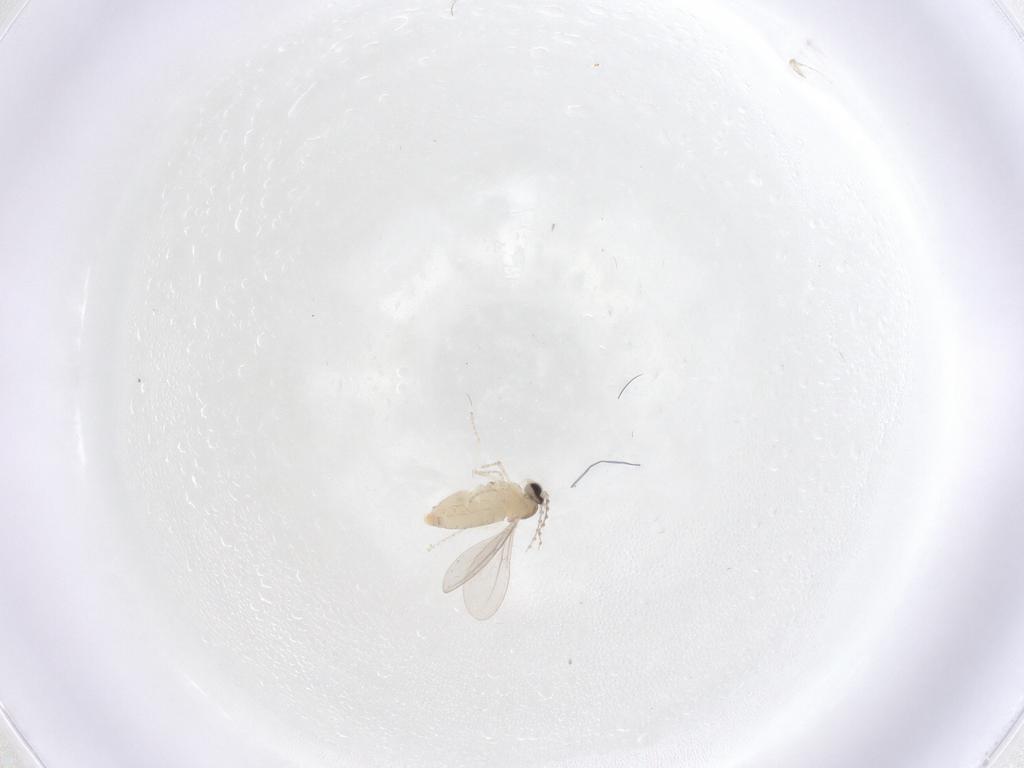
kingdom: Animalia
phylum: Arthropoda
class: Insecta
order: Diptera
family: Cecidomyiidae
